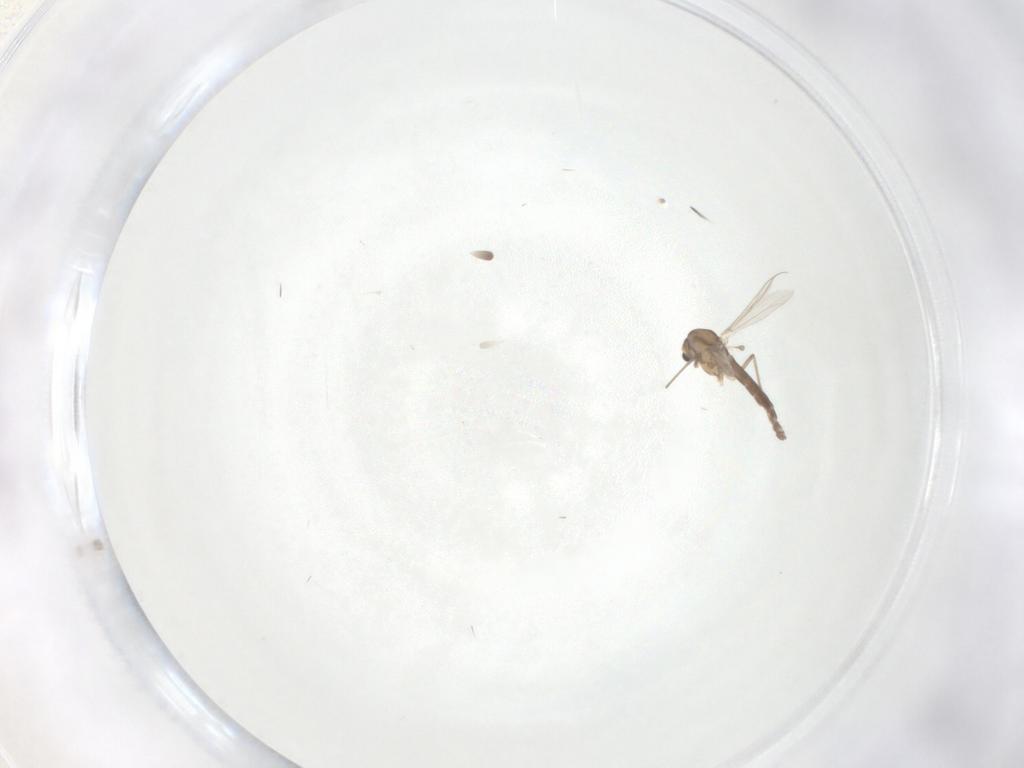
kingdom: Animalia
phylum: Arthropoda
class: Insecta
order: Diptera
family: Chironomidae
